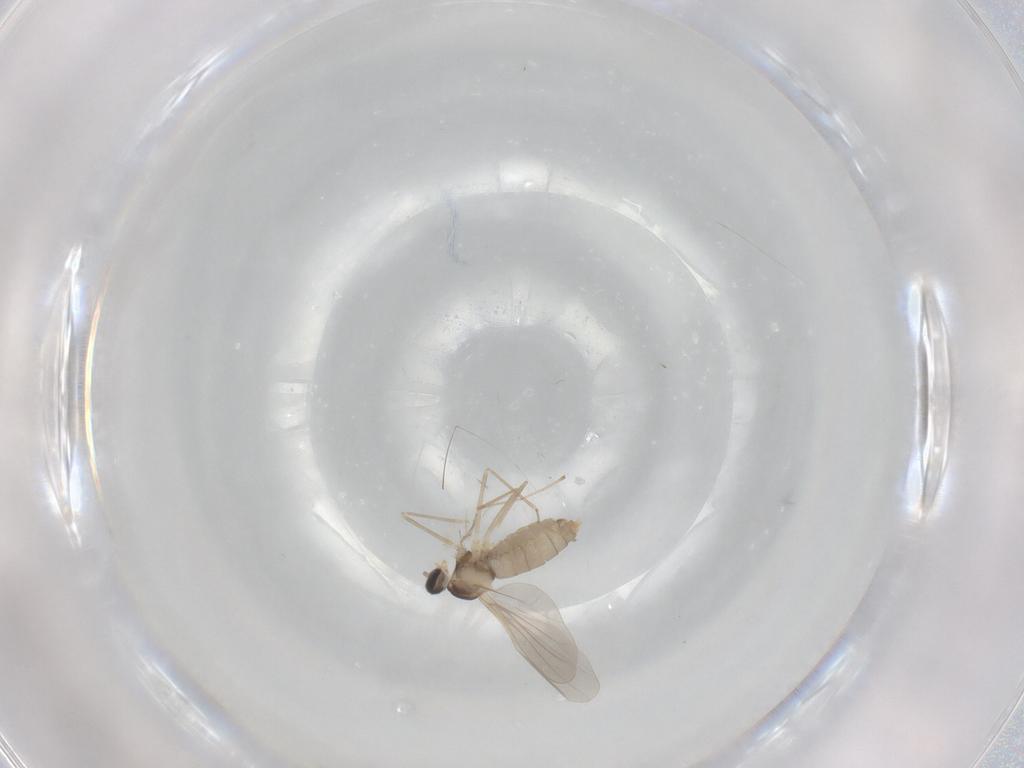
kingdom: Animalia
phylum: Arthropoda
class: Insecta
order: Diptera
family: Cecidomyiidae
